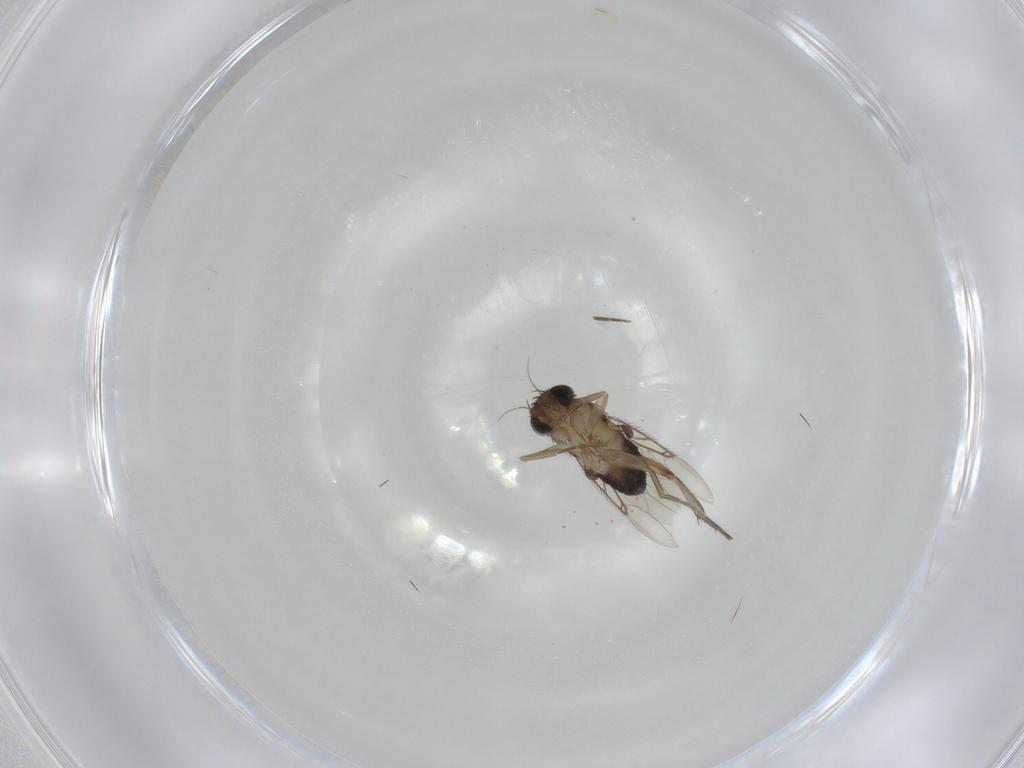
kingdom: Animalia
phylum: Arthropoda
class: Insecta
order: Diptera
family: Phoridae
